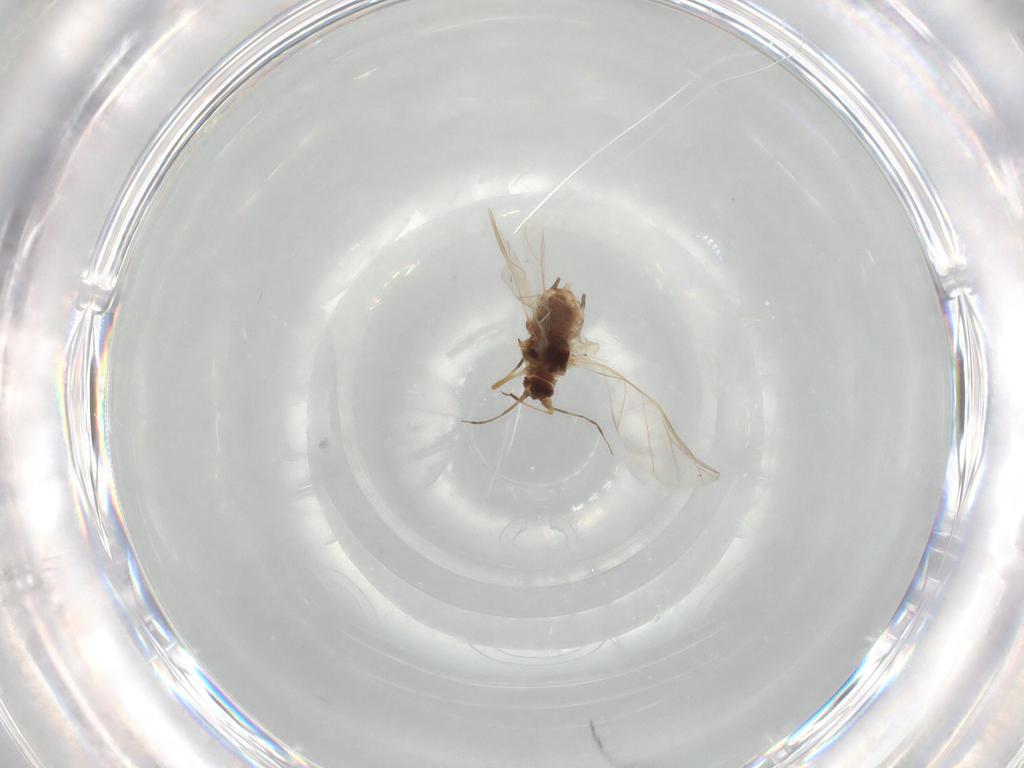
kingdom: Animalia
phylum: Arthropoda
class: Insecta
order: Hemiptera
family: Aphididae
